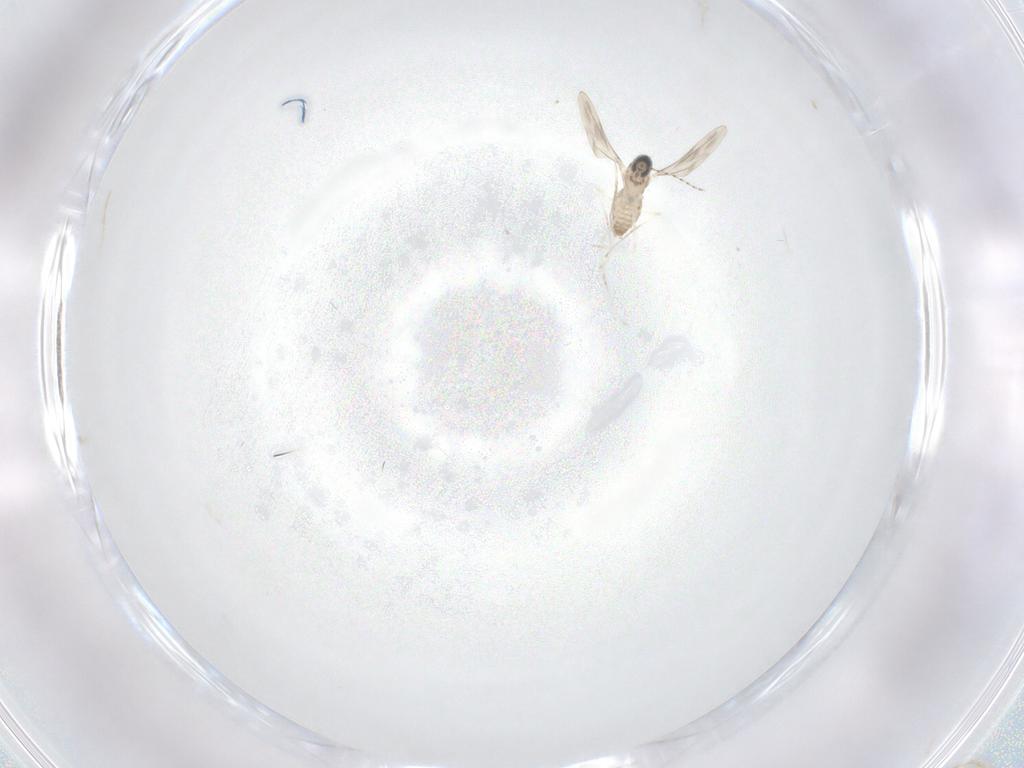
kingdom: Animalia
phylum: Arthropoda
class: Insecta
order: Diptera
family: Cecidomyiidae
